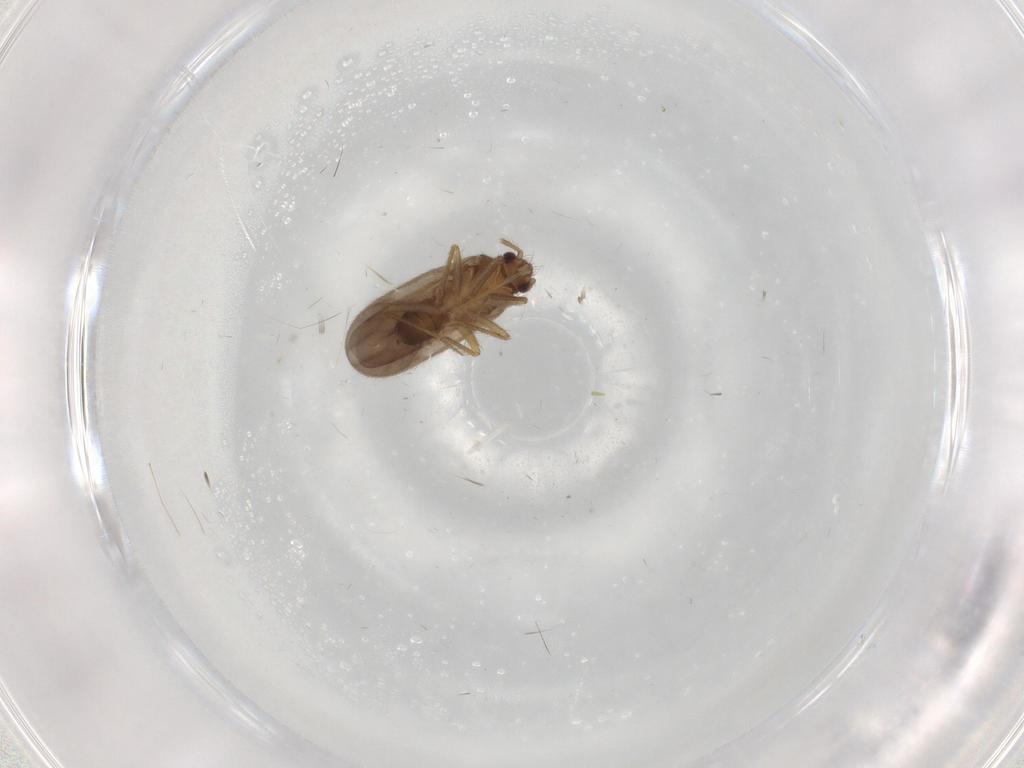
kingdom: Animalia
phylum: Arthropoda
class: Insecta
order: Hemiptera
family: Ceratocombidae
